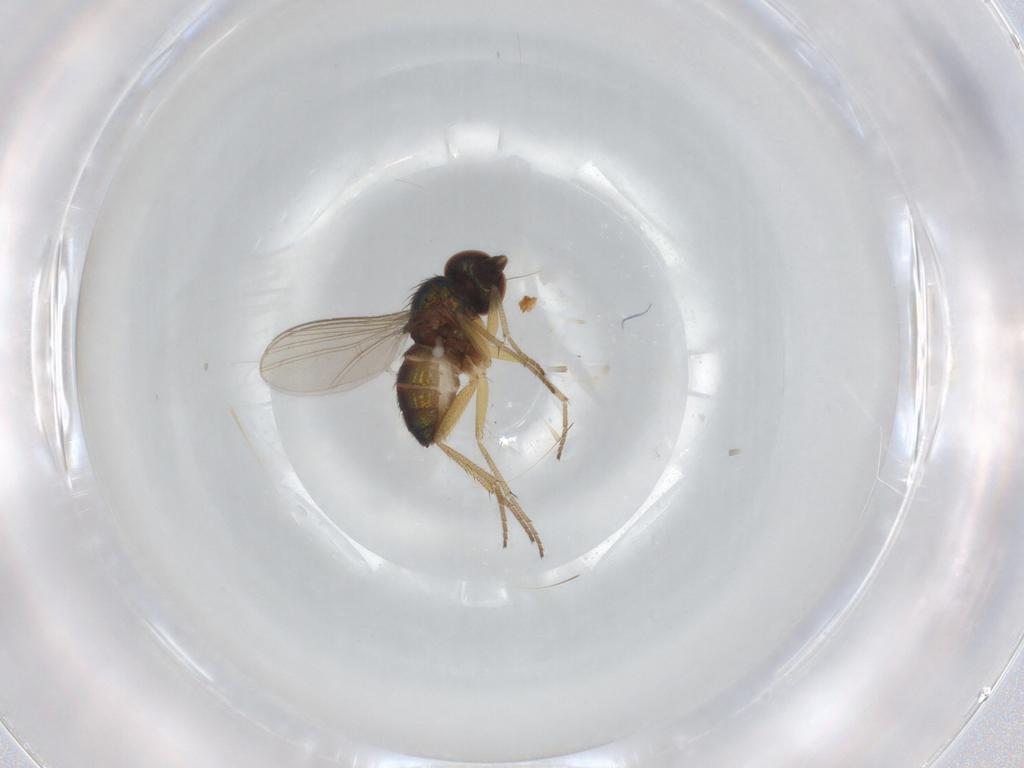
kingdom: Animalia
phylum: Arthropoda
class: Insecta
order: Diptera
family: Dolichopodidae
